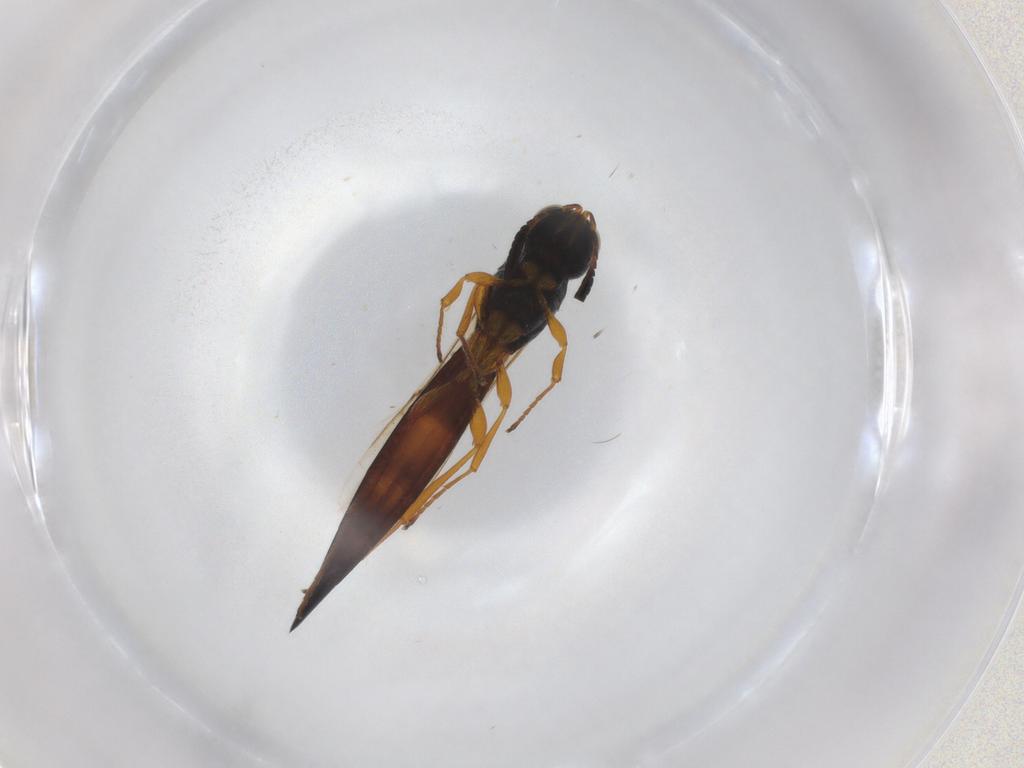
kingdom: Animalia
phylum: Arthropoda
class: Insecta
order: Hymenoptera
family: Scelionidae
